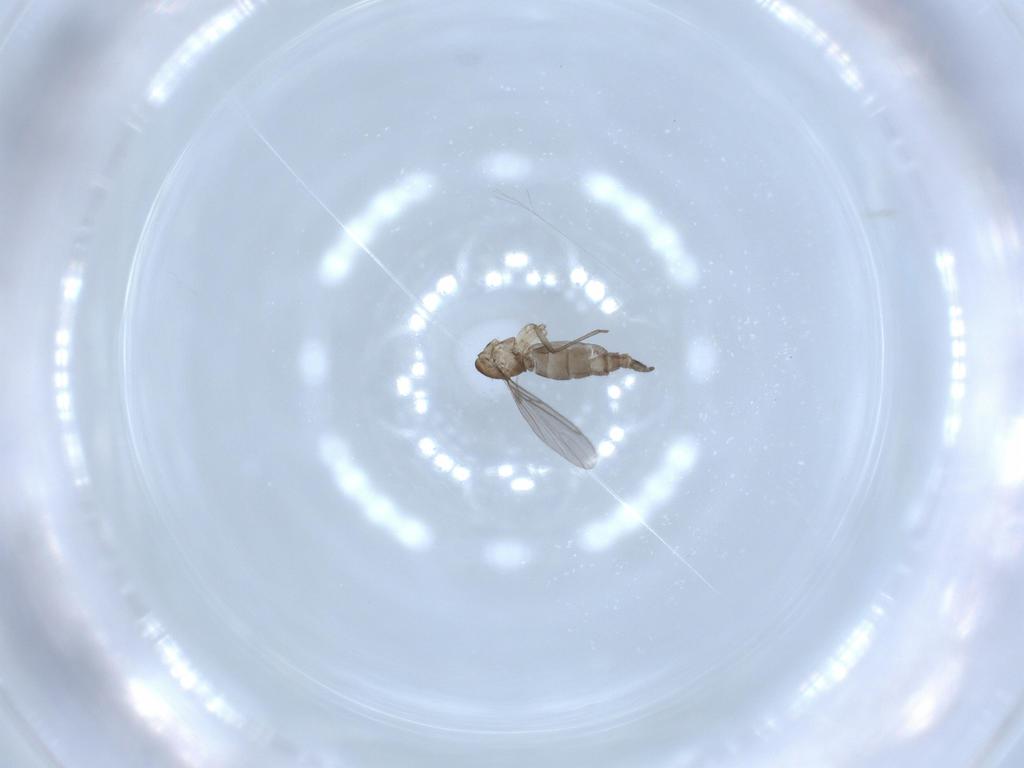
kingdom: Animalia
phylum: Arthropoda
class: Insecta
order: Diptera
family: Sciaridae
